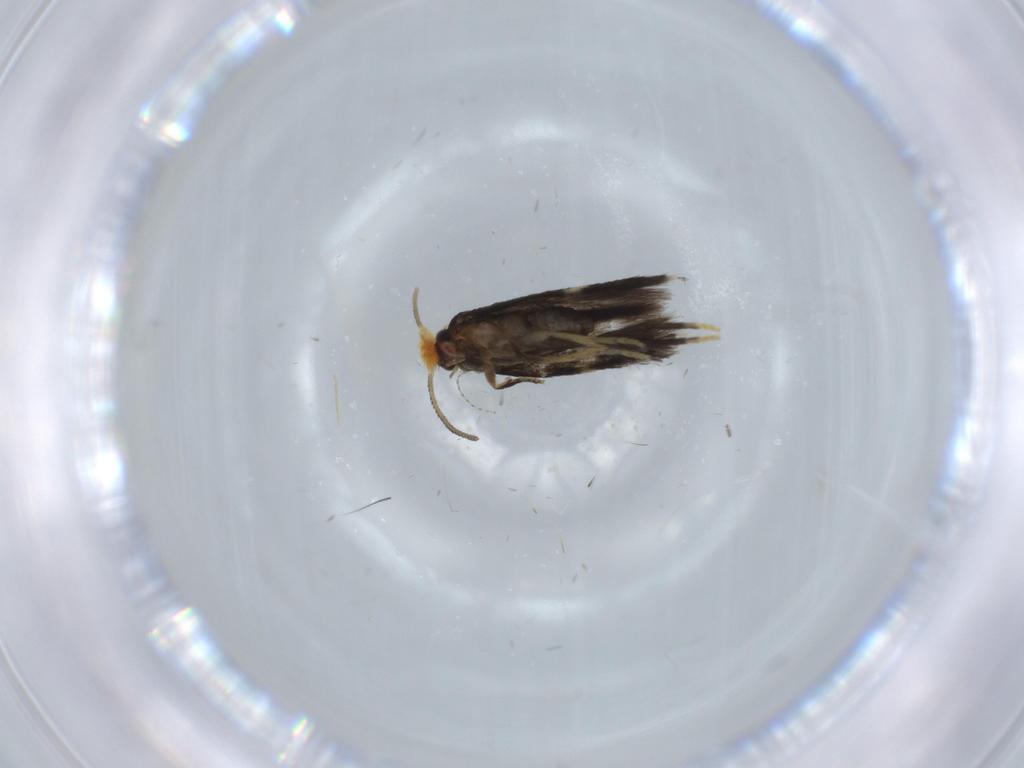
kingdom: Animalia
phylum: Arthropoda
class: Insecta
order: Lepidoptera
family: Nepticulidae
